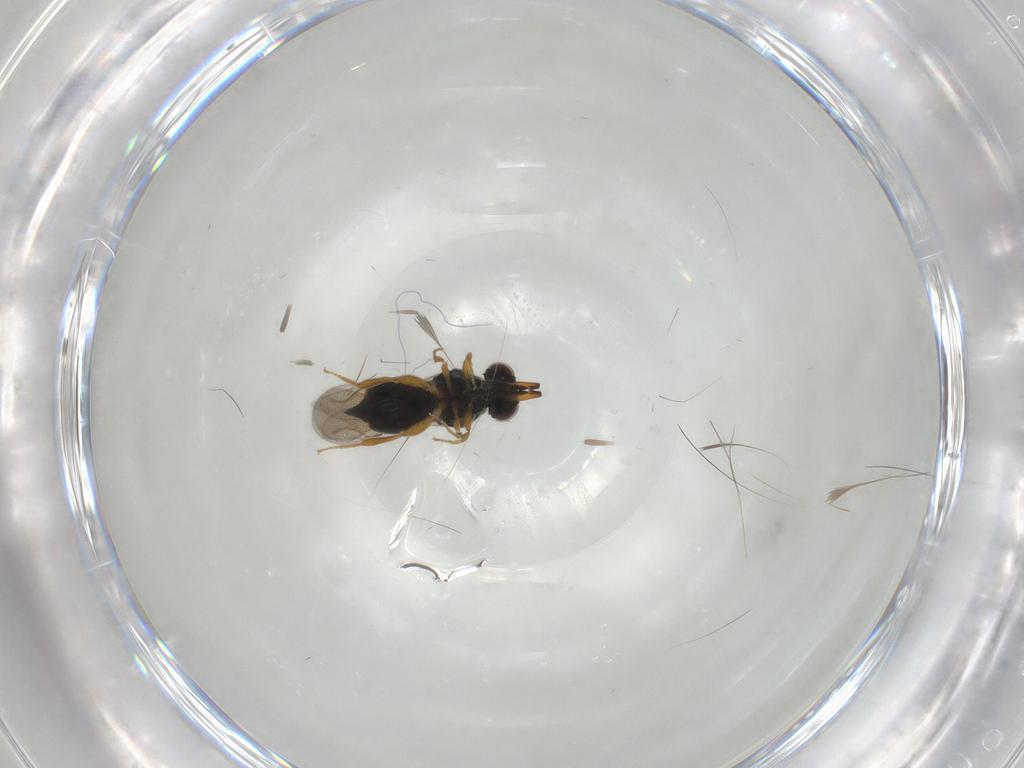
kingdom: Animalia
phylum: Arthropoda
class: Insecta
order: Hymenoptera
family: Ceraphronidae
